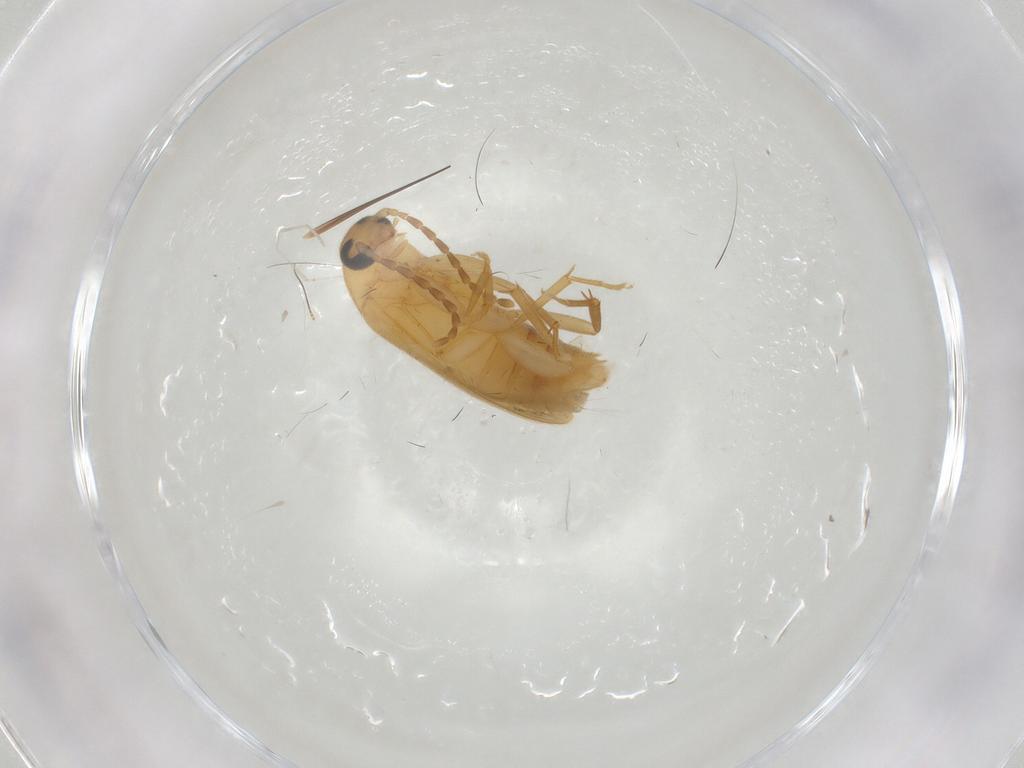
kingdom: Animalia
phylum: Arthropoda
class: Insecta
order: Coleoptera
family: Scraptiidae
